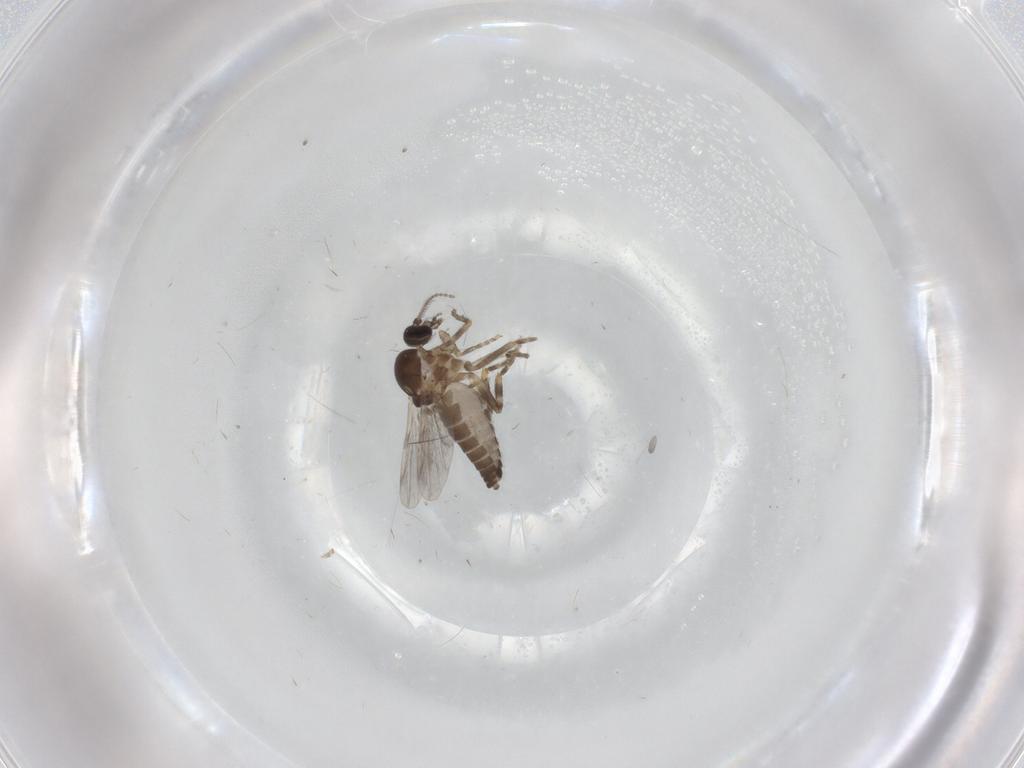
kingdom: Animalia
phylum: Arthropoda
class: Insecta
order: Diptera
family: Ceratopogonidae
